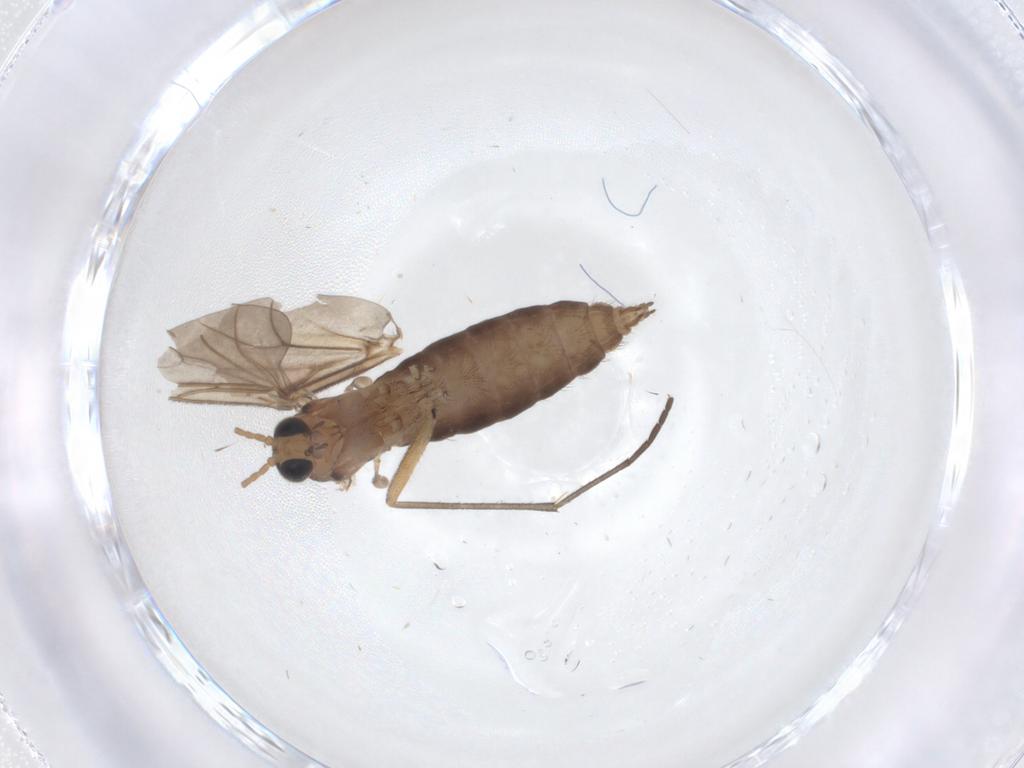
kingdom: Animalia
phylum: Arthropoda
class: Insecta
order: Diptera
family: Sciaridae
